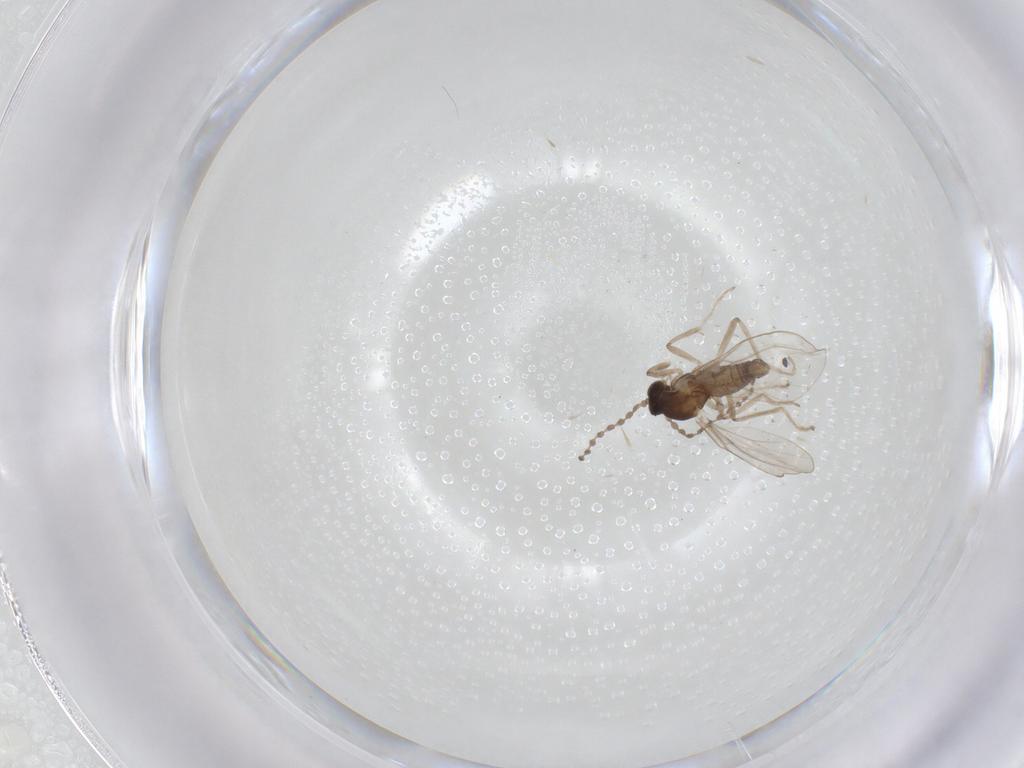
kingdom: Animalia
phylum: Arthropoda
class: Insecta
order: Diptera
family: Cecidomyiidae
